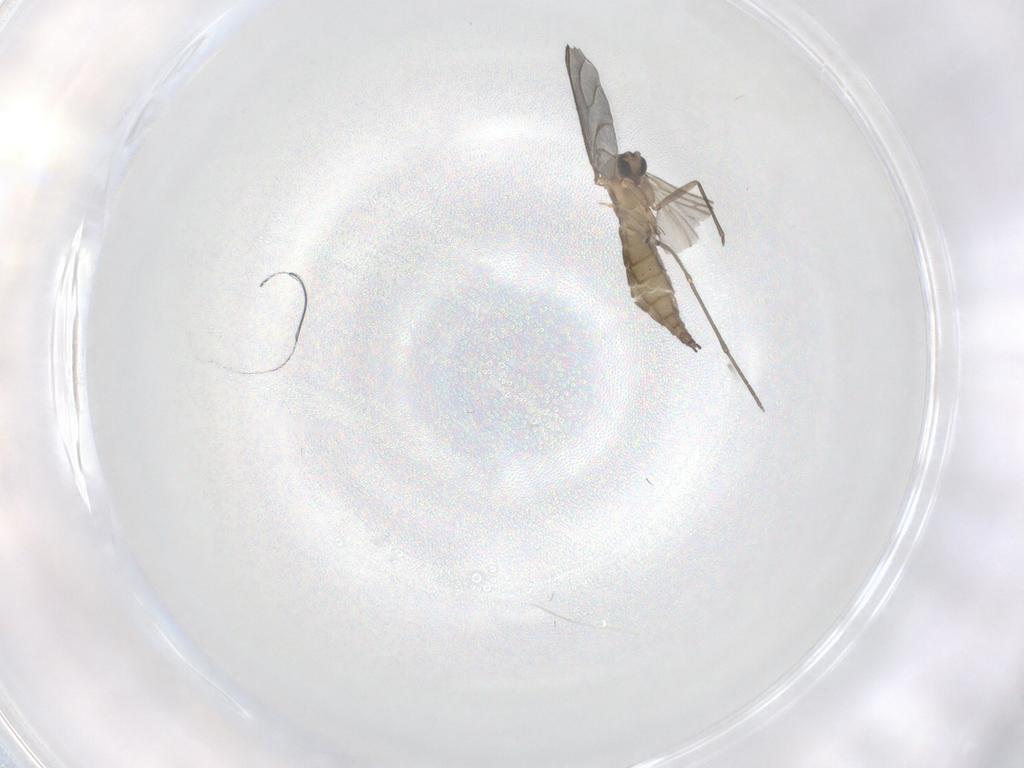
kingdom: Animalia
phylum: Arthropoda
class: Insecta
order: Diptera
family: Sciaridae
